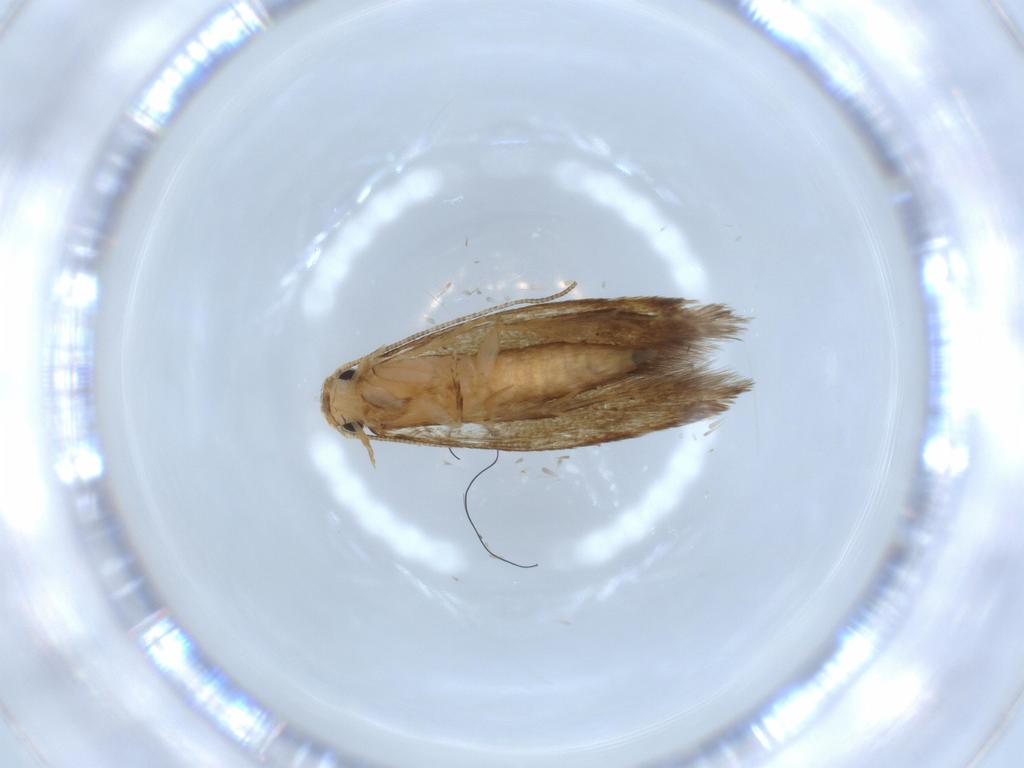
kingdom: Animalia
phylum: Arthropoda
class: Insecta
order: Lepidoptera
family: Tineidae
